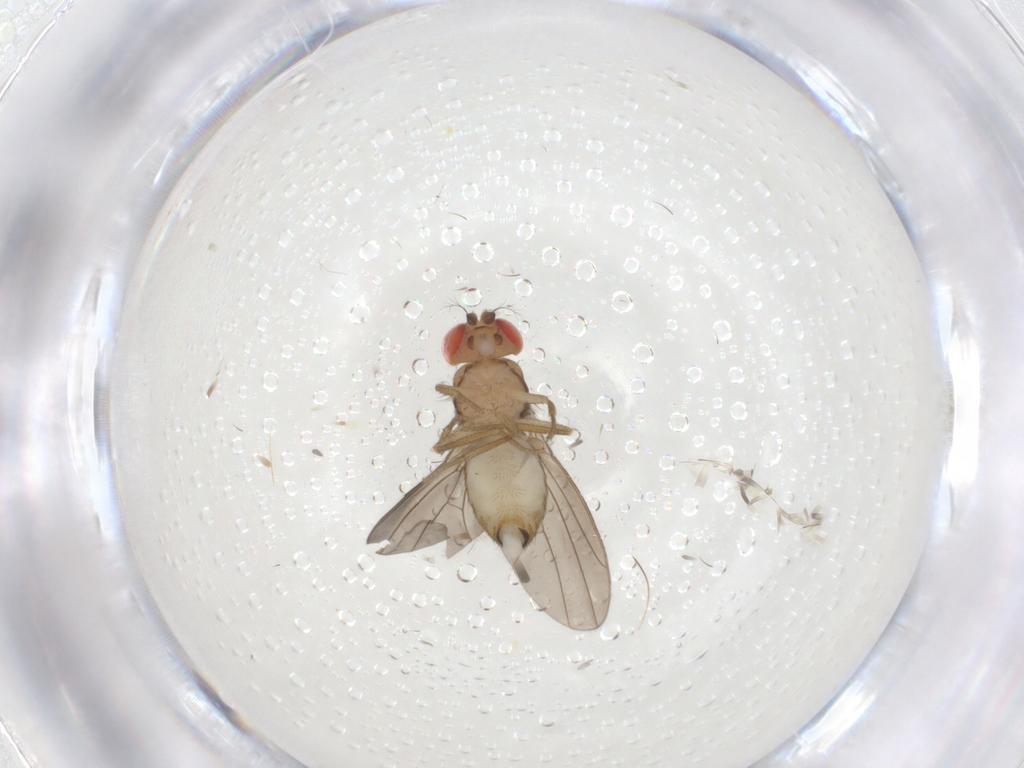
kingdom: Animalia
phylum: Arthropoda
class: Insecta
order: Diptera
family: Drosophilidae
